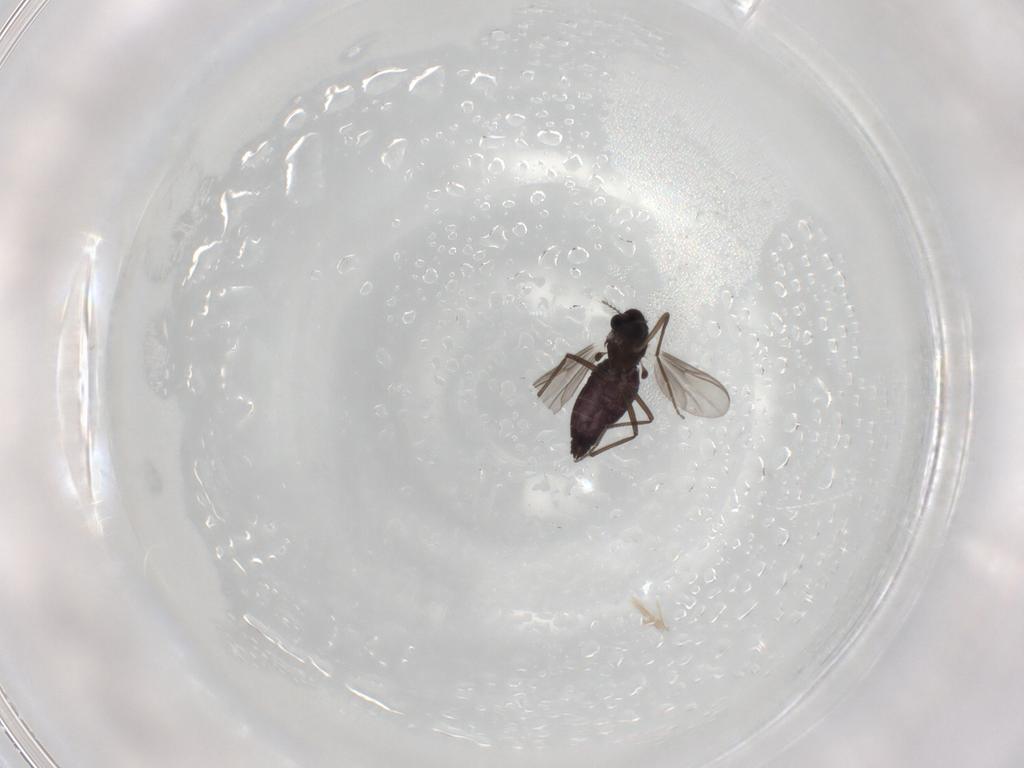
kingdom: Animalia
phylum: Arthropoda
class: Insecta
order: Diptera
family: Chironomidae
